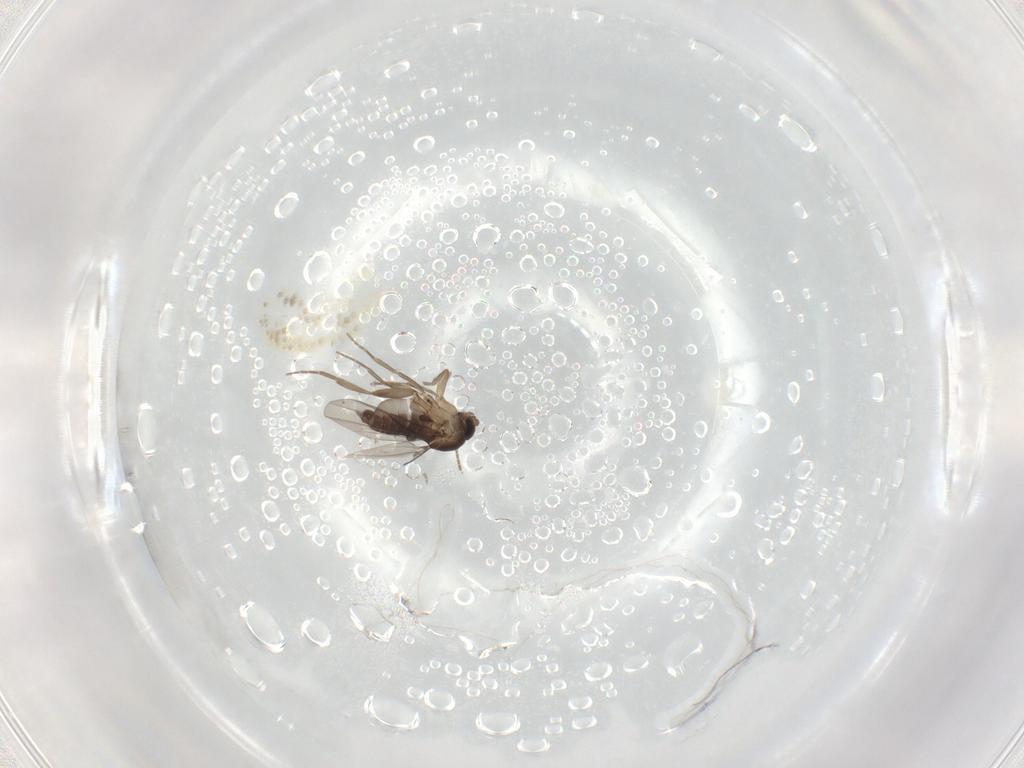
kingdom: Animalia
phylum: Arthropoda
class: Insecta
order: Diptera
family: Phoridae
